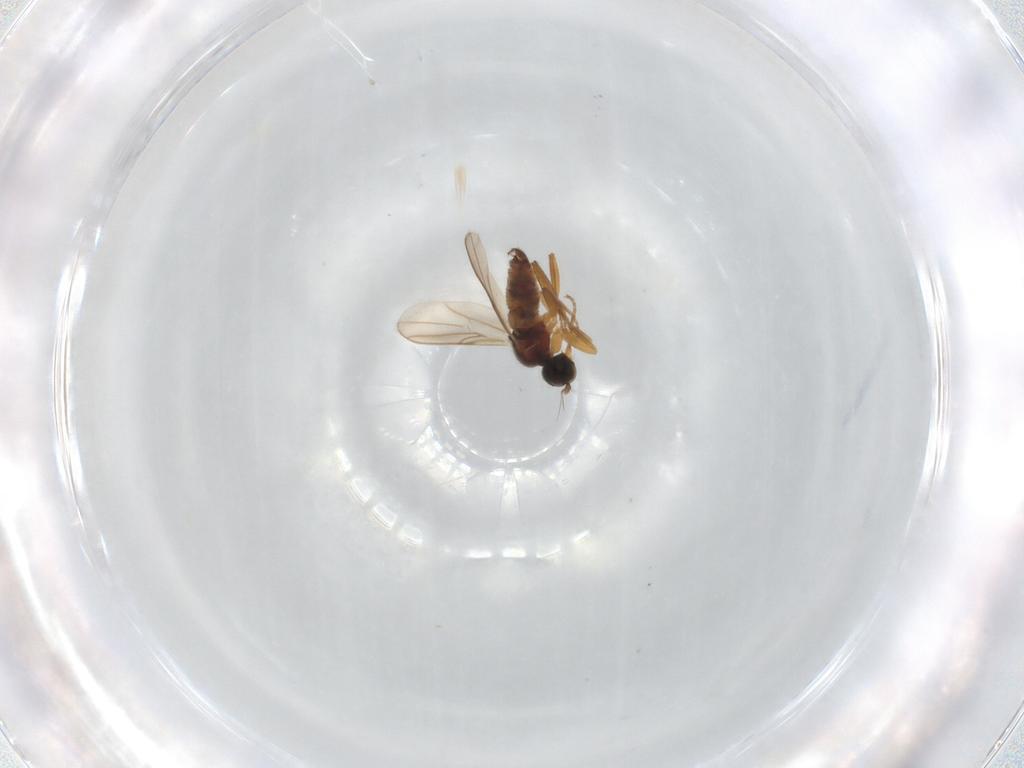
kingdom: Animalia
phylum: Arthropoda
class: Insecta
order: Diptera
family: Hybotidae
